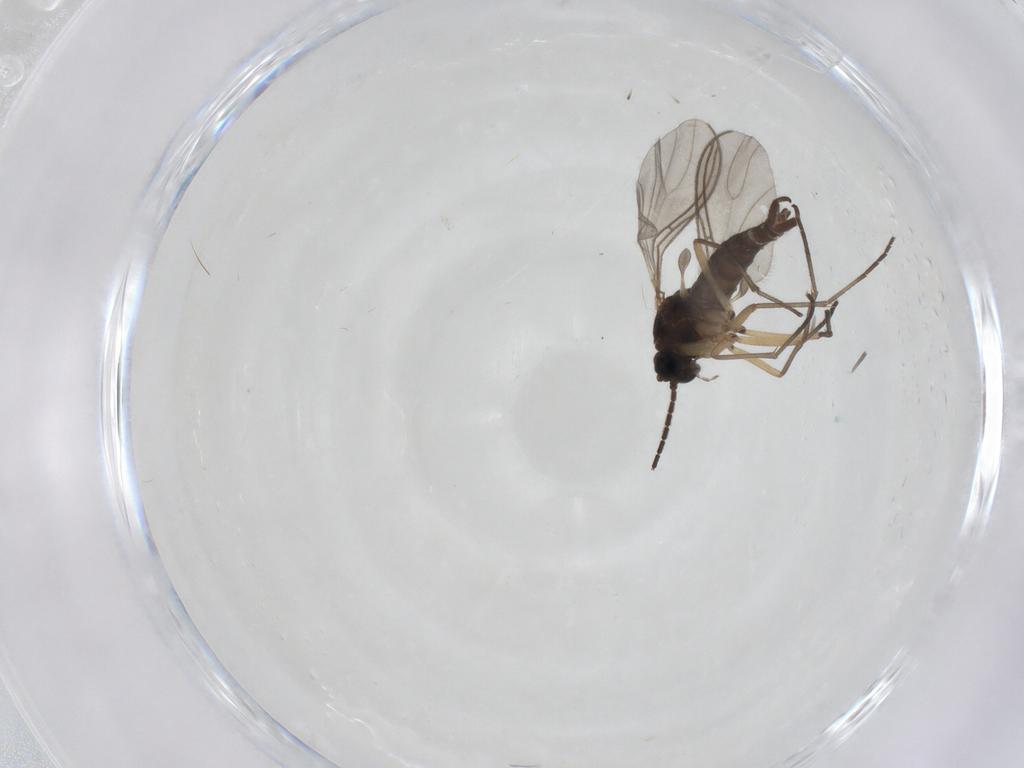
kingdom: Animalia
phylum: Arthropoda
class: Insecta
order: Diptera
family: Sciaridae
